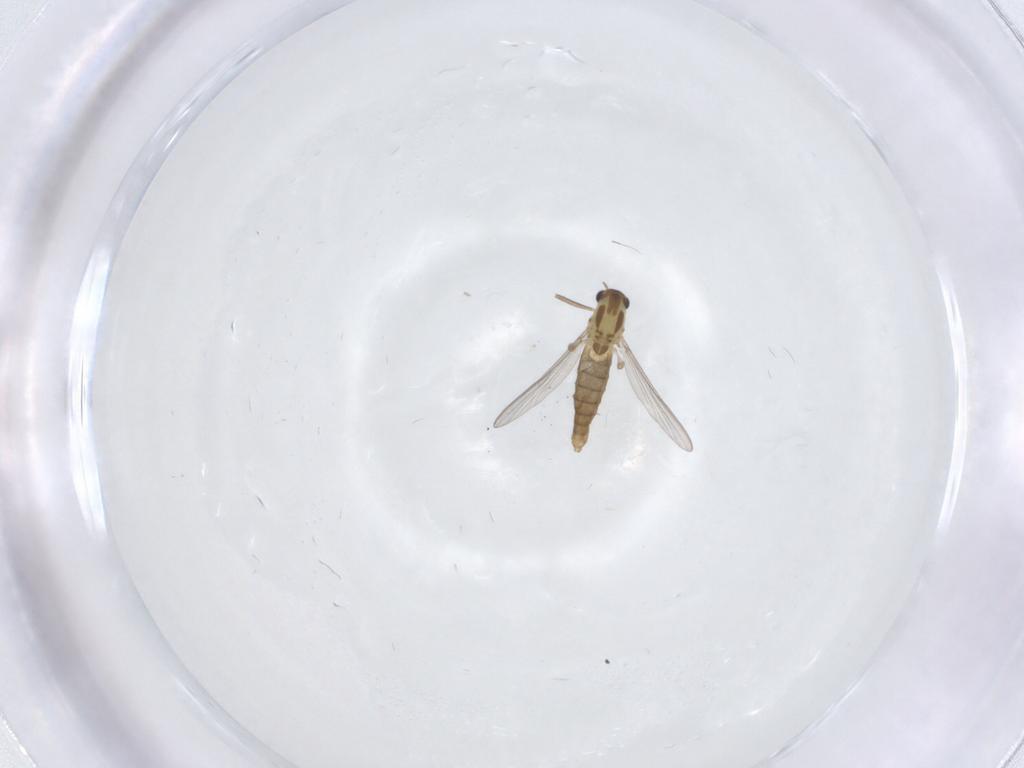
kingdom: Animalia
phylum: Arthropoda
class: Insecta
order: Diptera
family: Chironomidae
